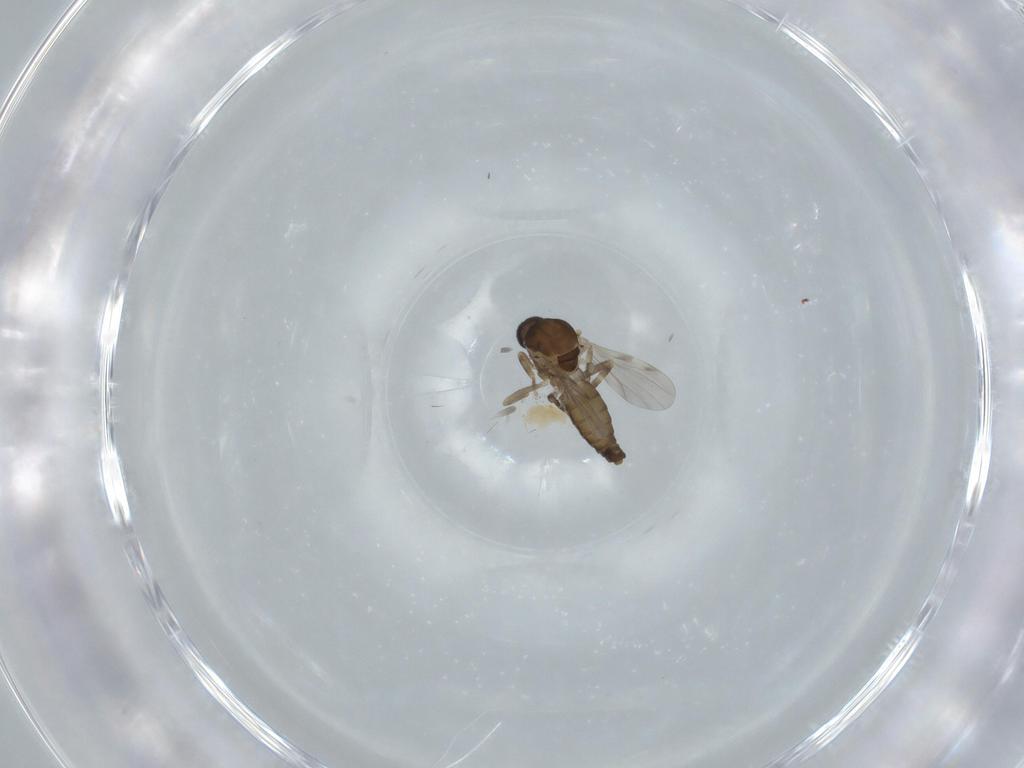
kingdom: Animalia
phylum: Arthropoda
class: Insecta
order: Diptera
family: Ceratopogonidae
